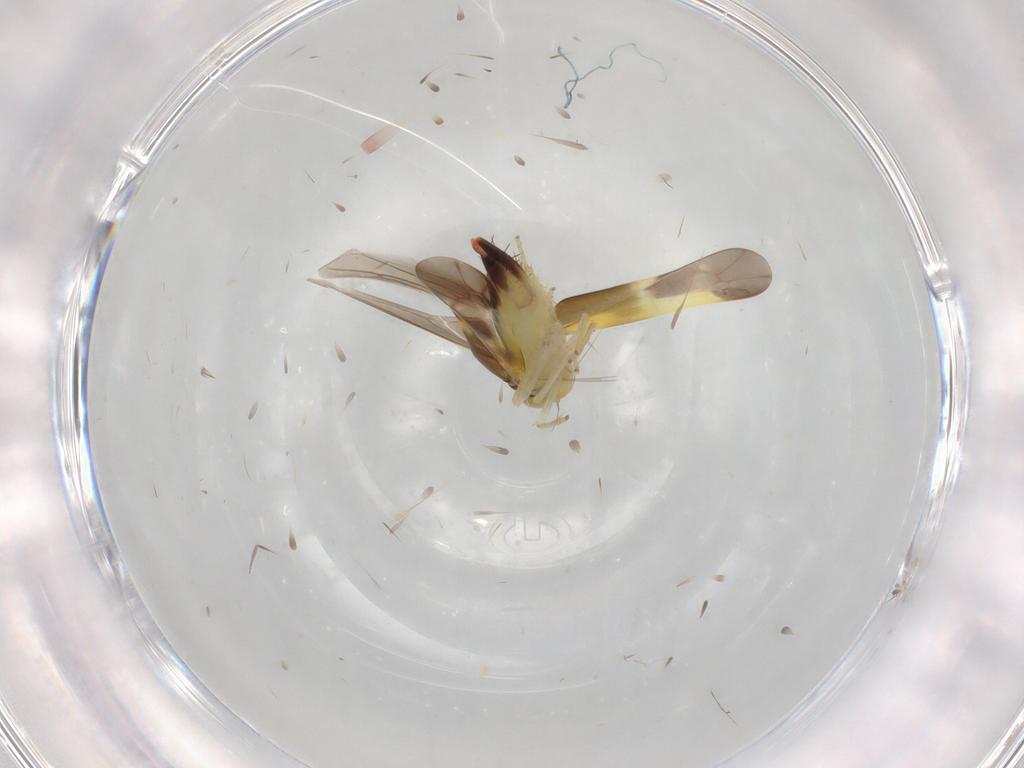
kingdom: Animalia
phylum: Arthropoda
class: Insecta
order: Hemiptera
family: Cicadellidae
